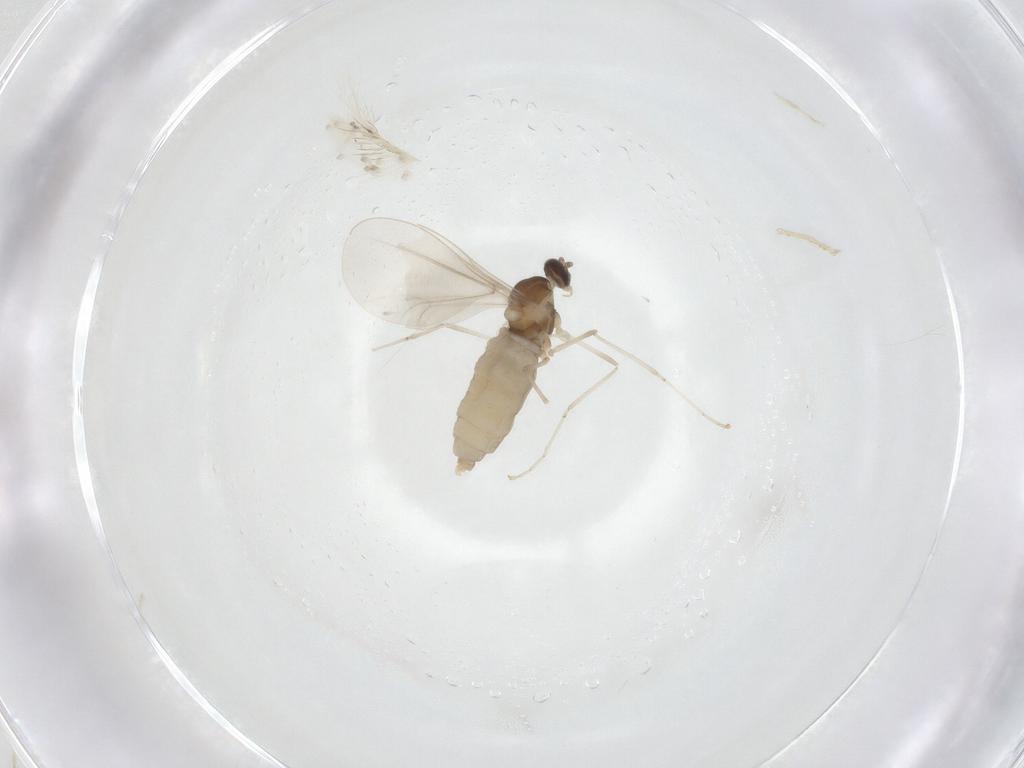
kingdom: Animalia
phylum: Arthropoda
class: Insecta
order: Diptera
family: Cecidomyiidae
